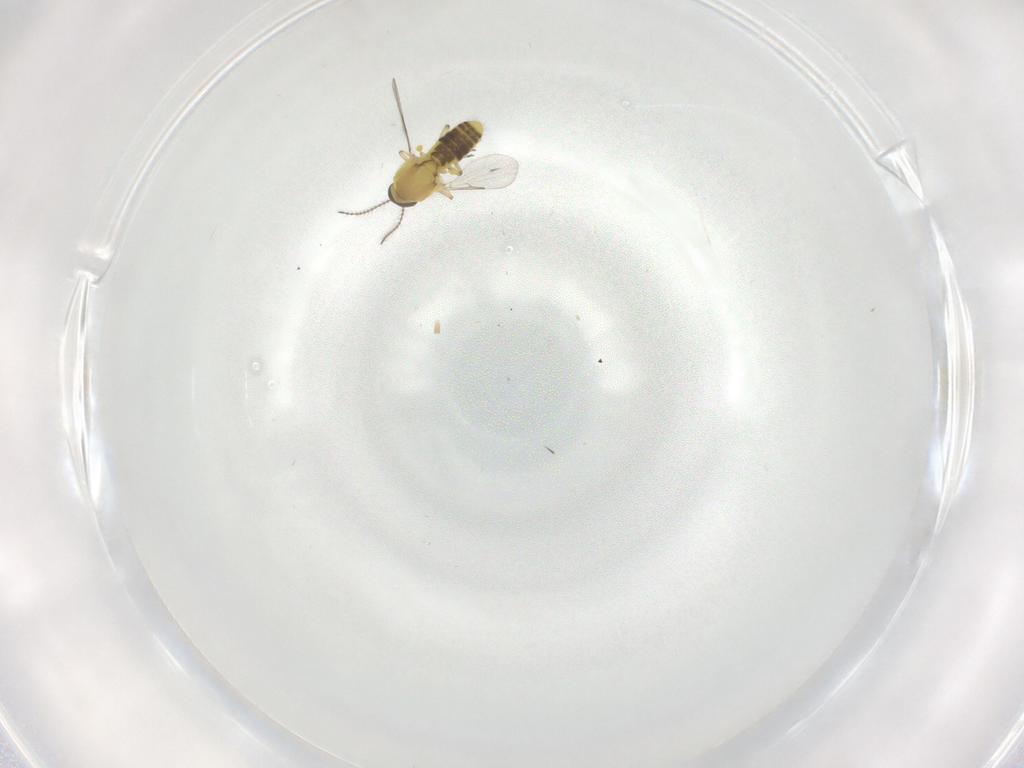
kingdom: Animalia
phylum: Arthropoda
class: Insecta
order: Diptera
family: Ceratopogonidae
